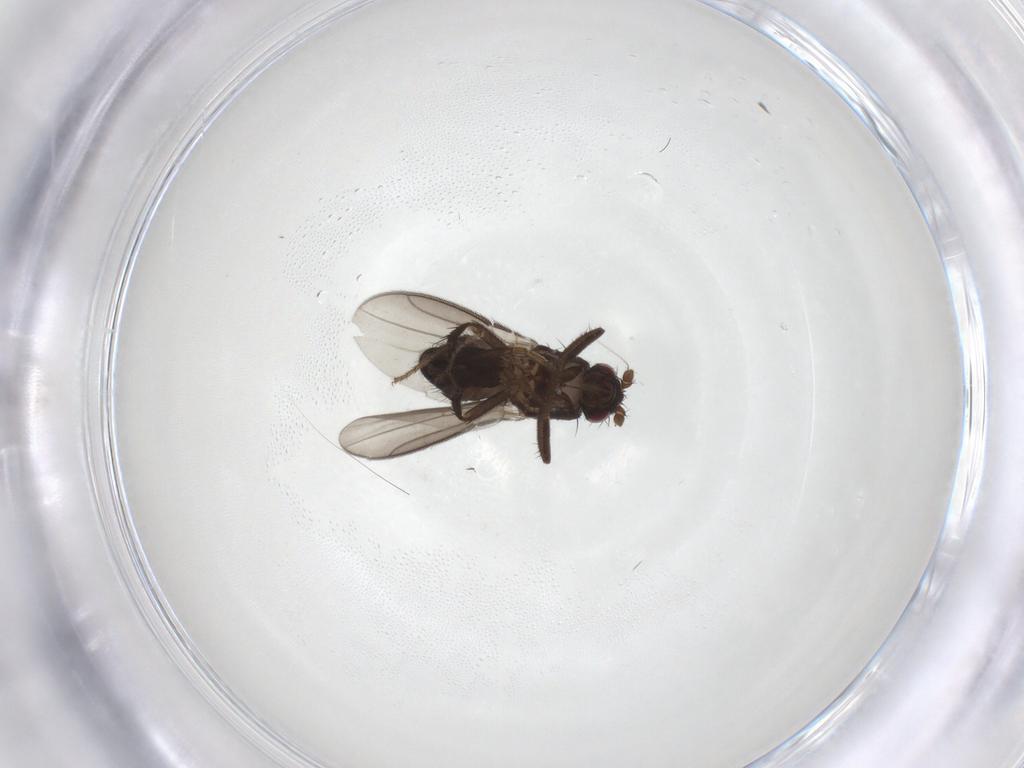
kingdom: Animalia
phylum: Arthropoda
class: Insecta
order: Diptera
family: Sphaeroceridae
